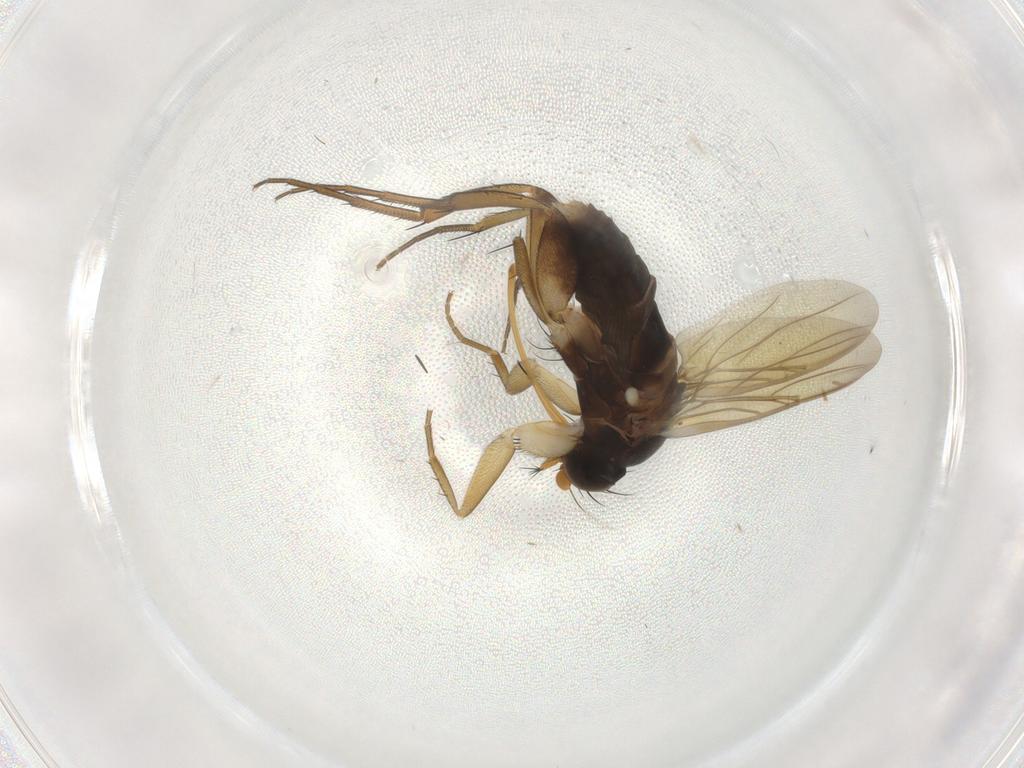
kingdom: Animalia
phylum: Arthropoda
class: Insecta
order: Diptera
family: Phoridae
